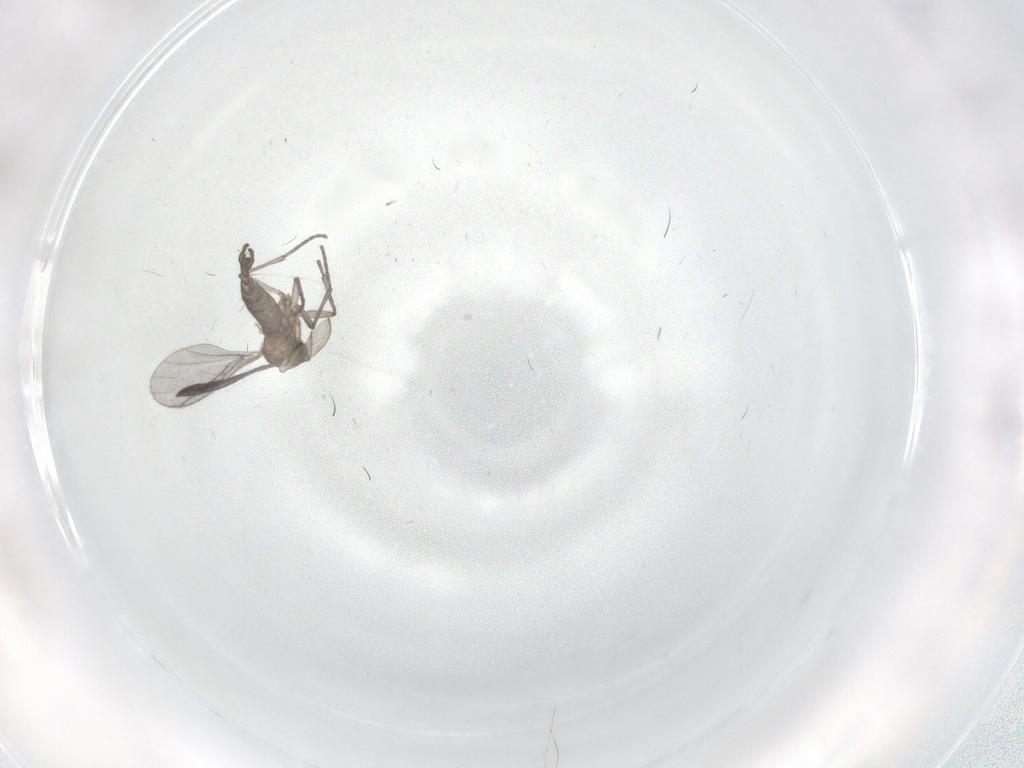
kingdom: Animalia
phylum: Arthropoda
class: Insecta
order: Diptera
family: Sciaridae
